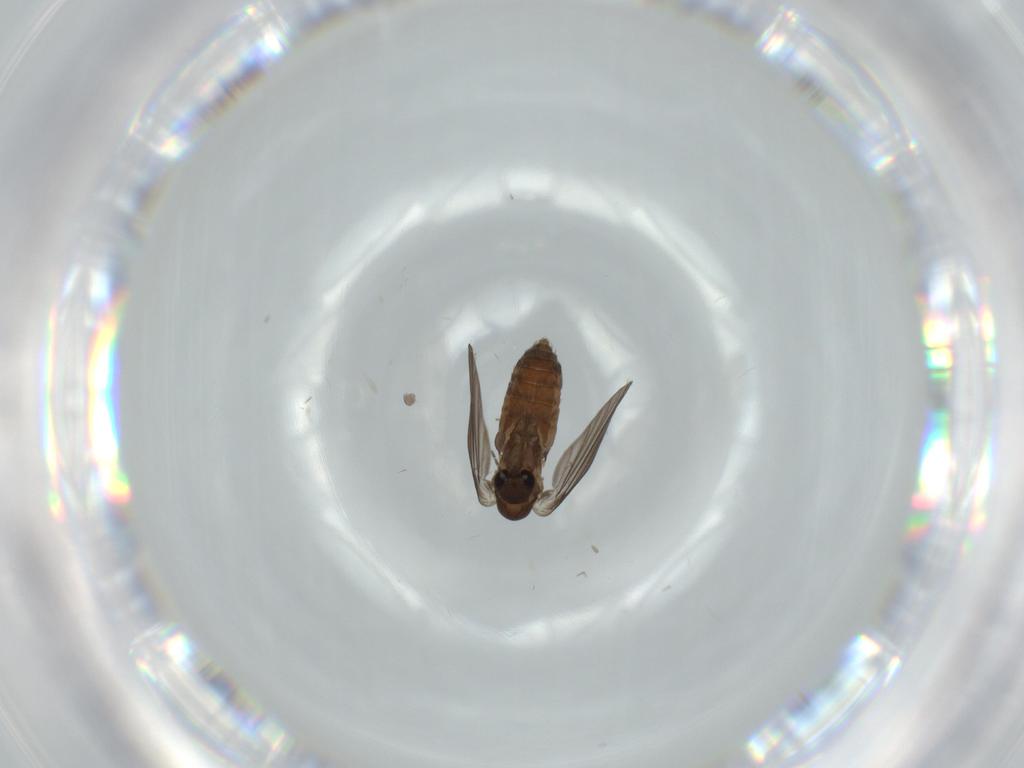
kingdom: Animalia
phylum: Arthropoda
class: Insecta
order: Diptera
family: Psychodidae
